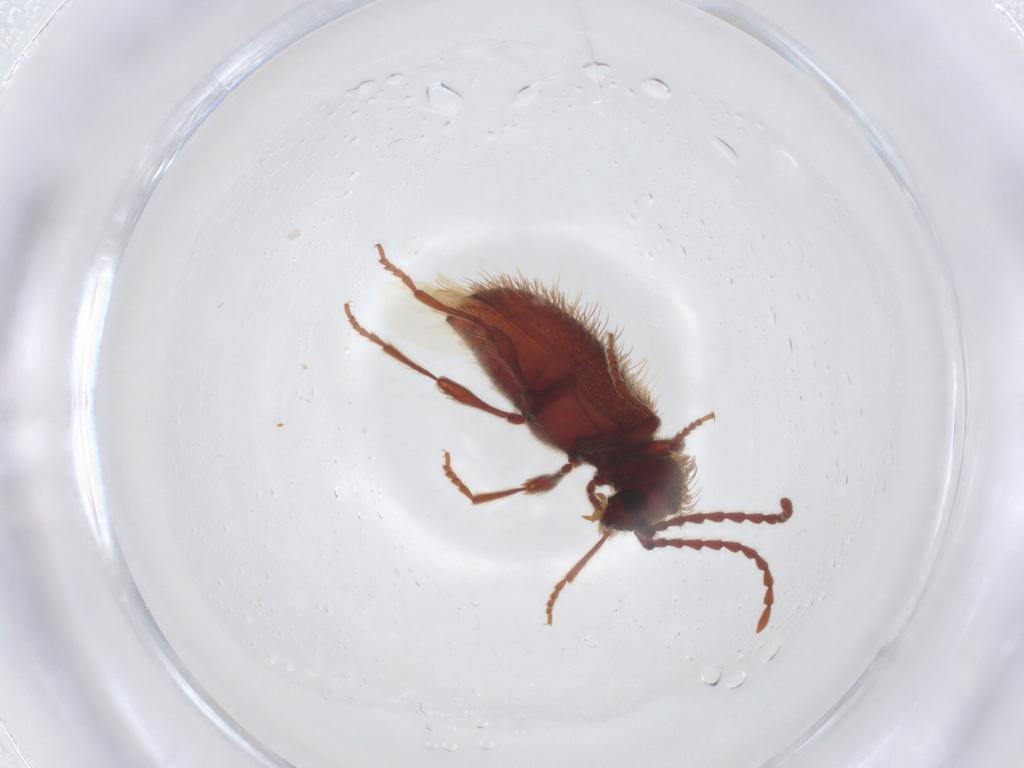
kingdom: Animalia
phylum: Arthropoda
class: Insecta
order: Coleoptera
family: Ptinidae
